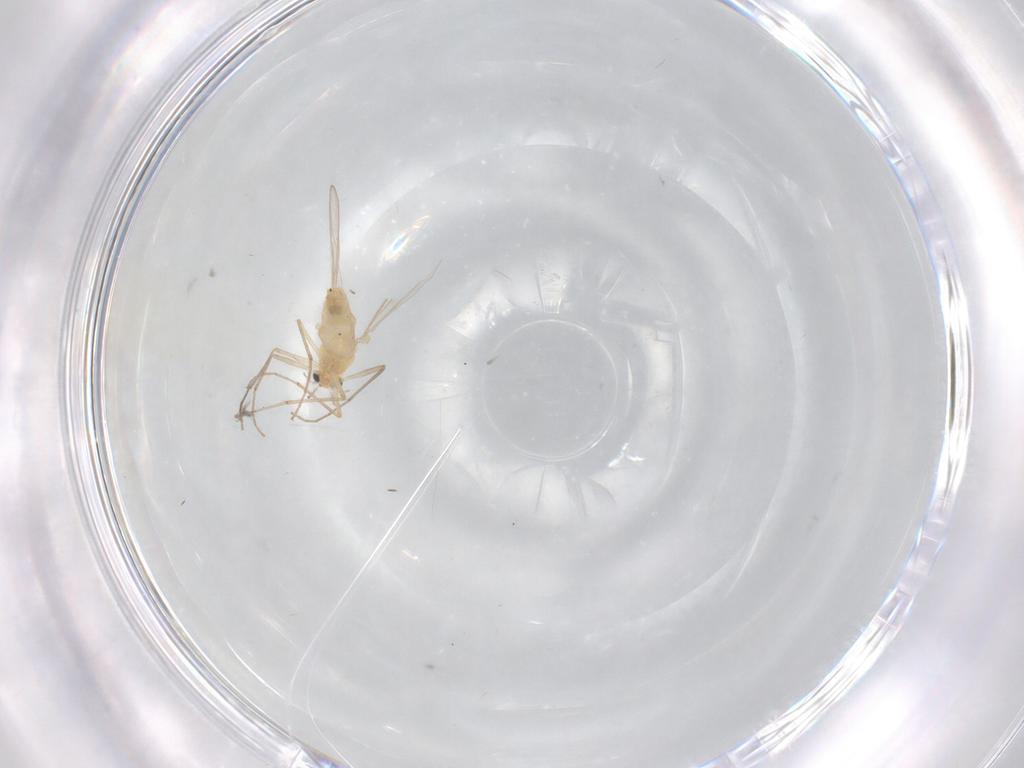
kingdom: Animalia
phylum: Arthropoda
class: Insecta
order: Diptera
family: Chironomidae
